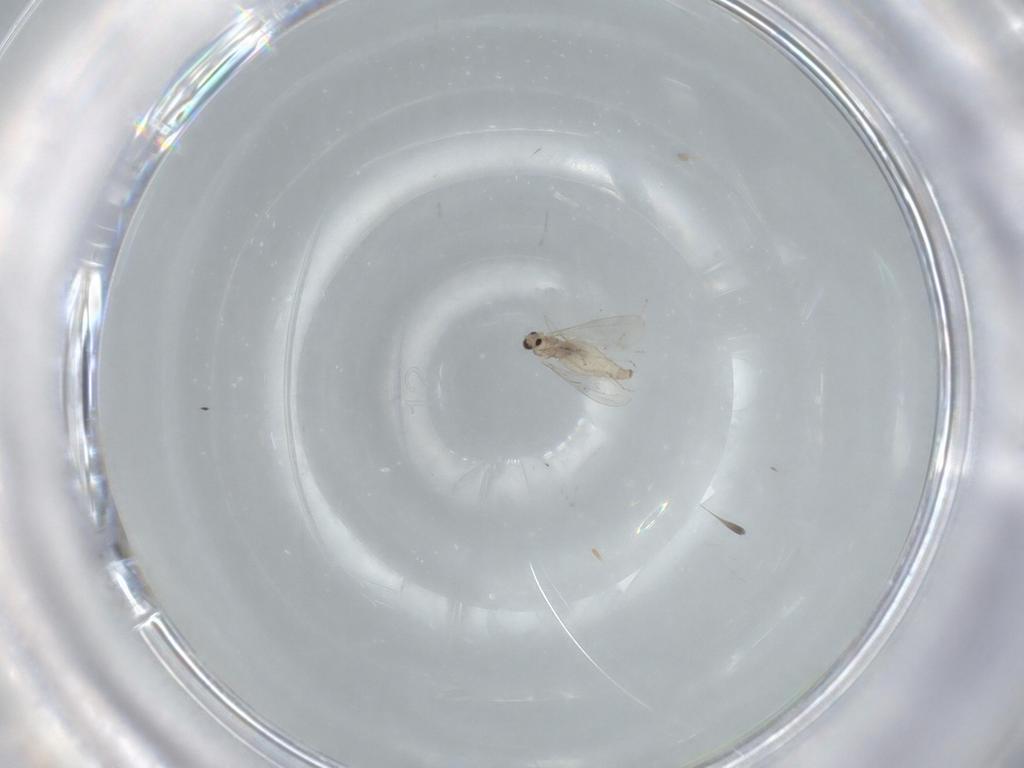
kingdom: Animalia
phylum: Arthropoda
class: Insecta
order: Diptera
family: Cecidomyiidae
